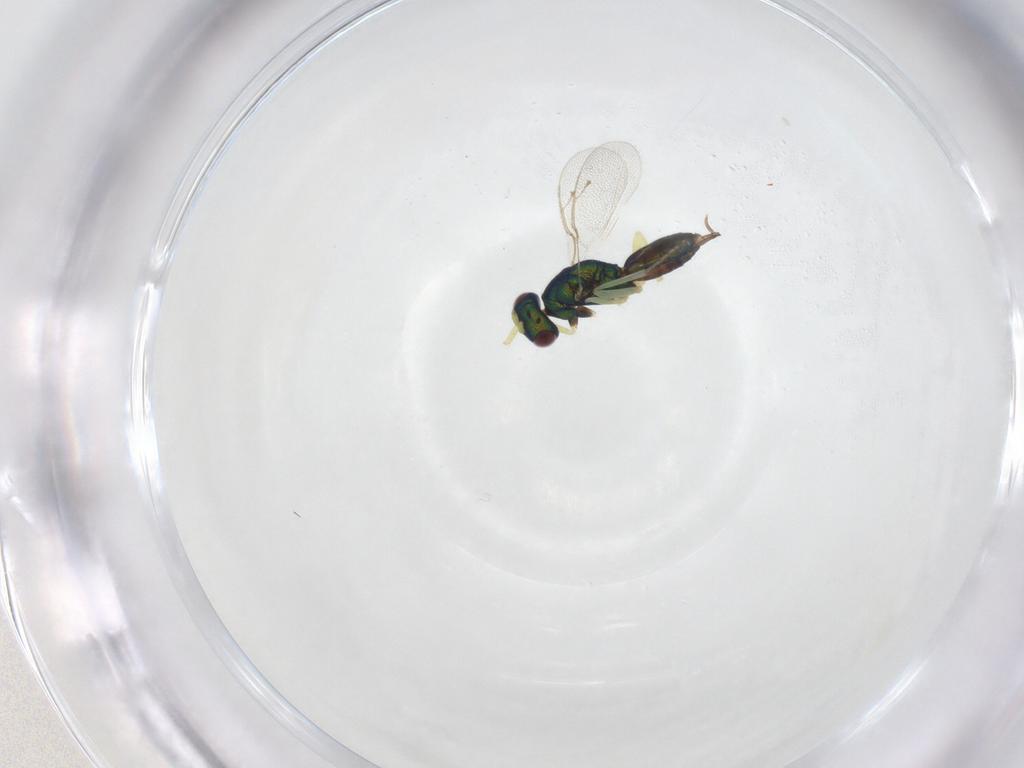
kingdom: Animalia
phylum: Arthropoda
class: Insecta
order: Hymenoptera
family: Pteromalidae
